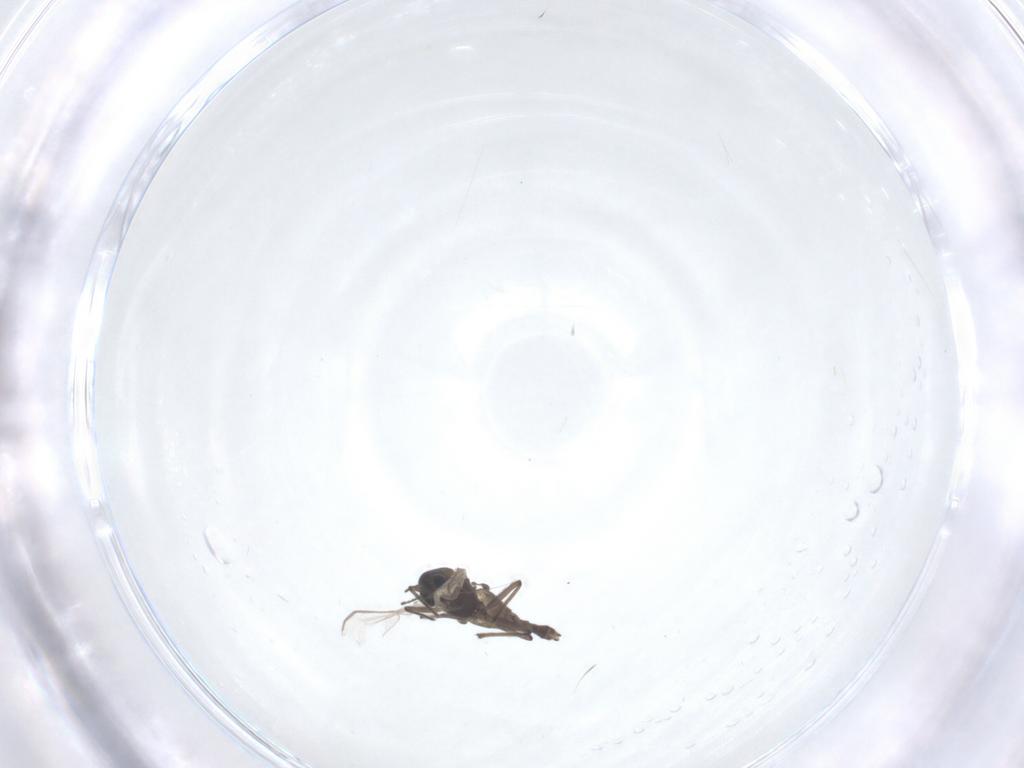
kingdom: Animalia
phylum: Arthropoda
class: Insecta
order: Diptera
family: Chironomidae
